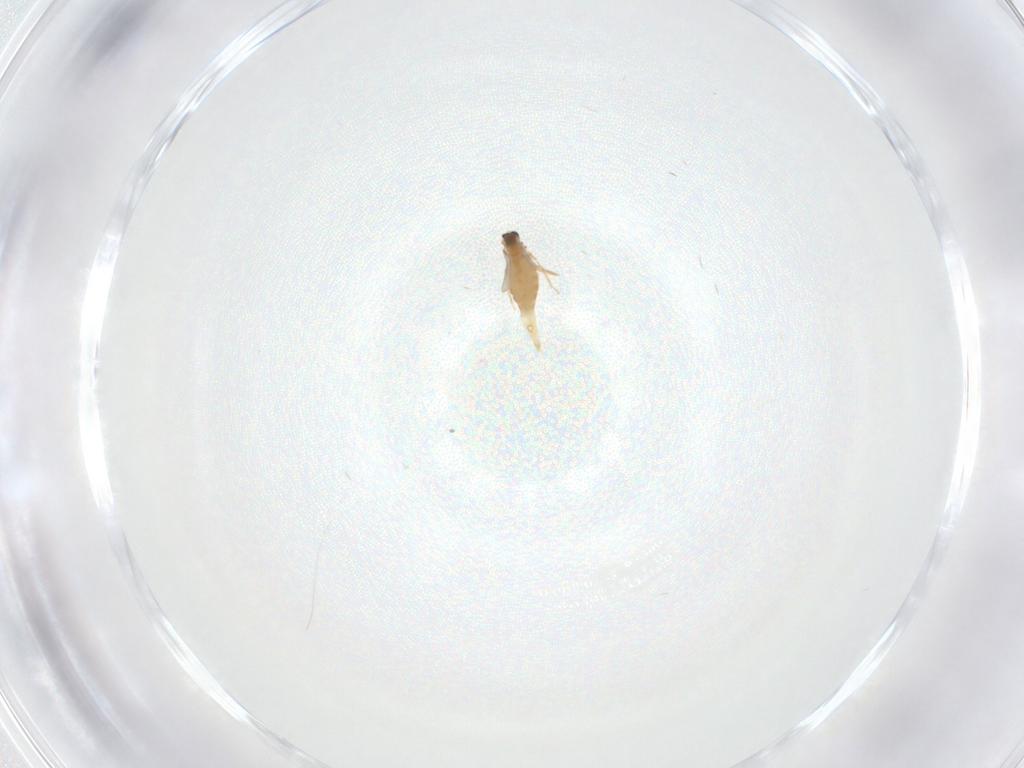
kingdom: Animalia
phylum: Arthropoda
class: Insecta
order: Diptera
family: Cecidomyiidae
